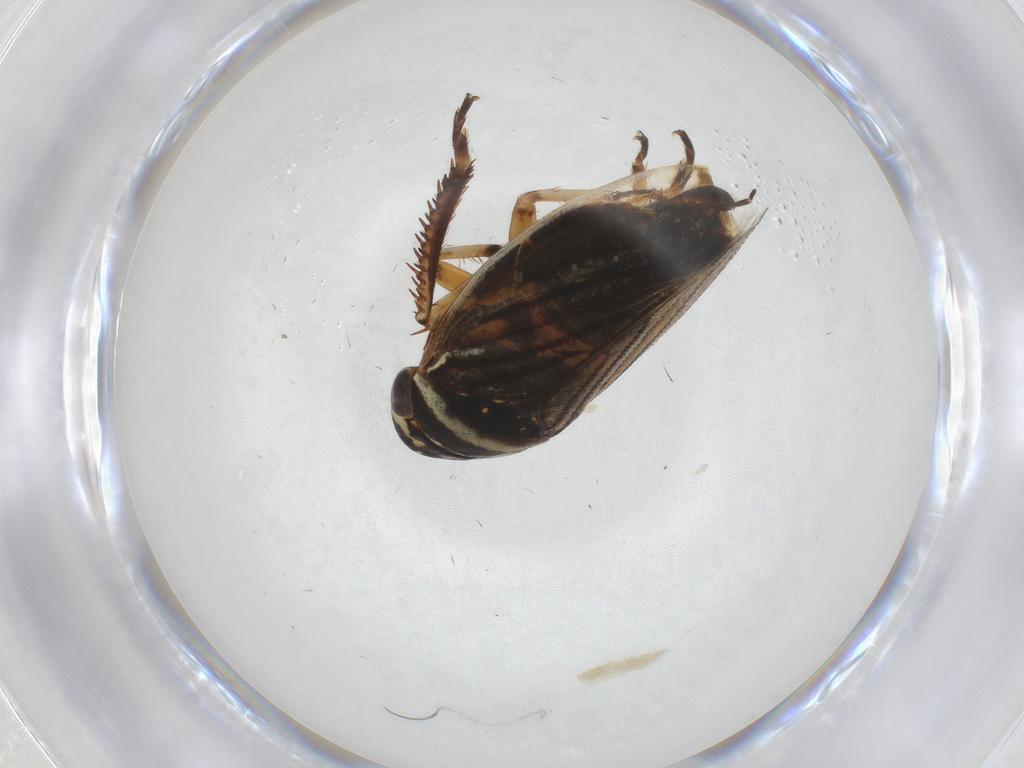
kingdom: Animalia
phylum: Arthropoda
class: Insecta
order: Hemiptera
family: Cicadellidae
